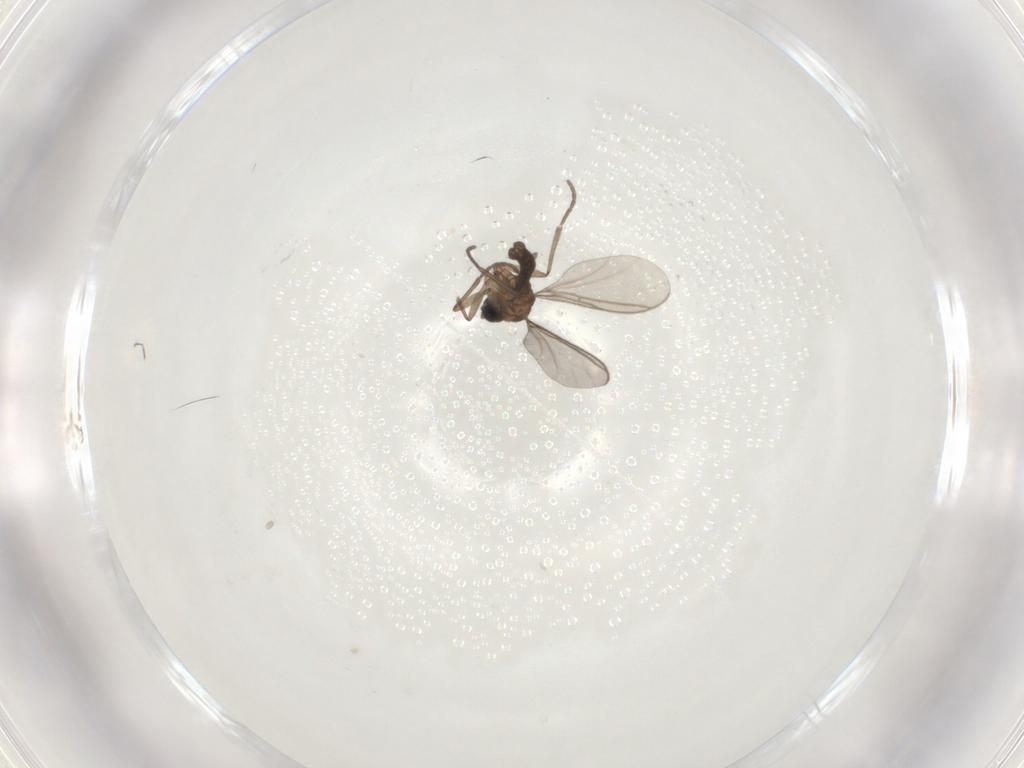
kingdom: Animalia
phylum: Arthropoda
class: Insecta
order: Diptera
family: Sciaridae
